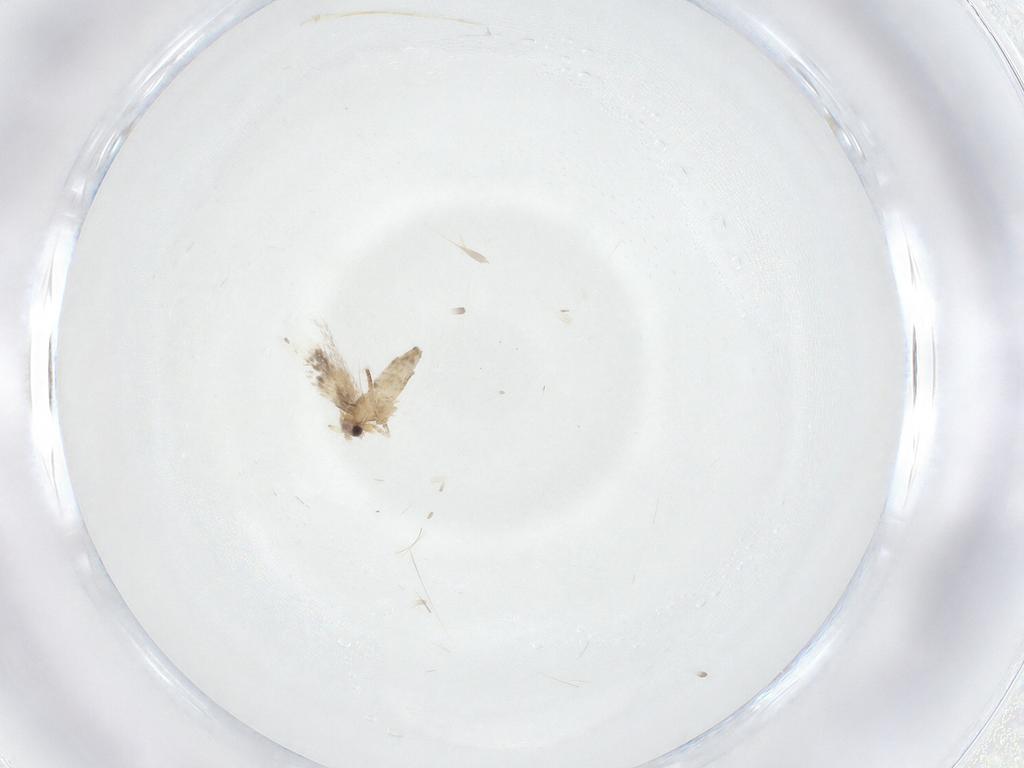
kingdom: Animalia
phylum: Arthropoda
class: Insecta
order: Lepidoptera
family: Nepticulidae
